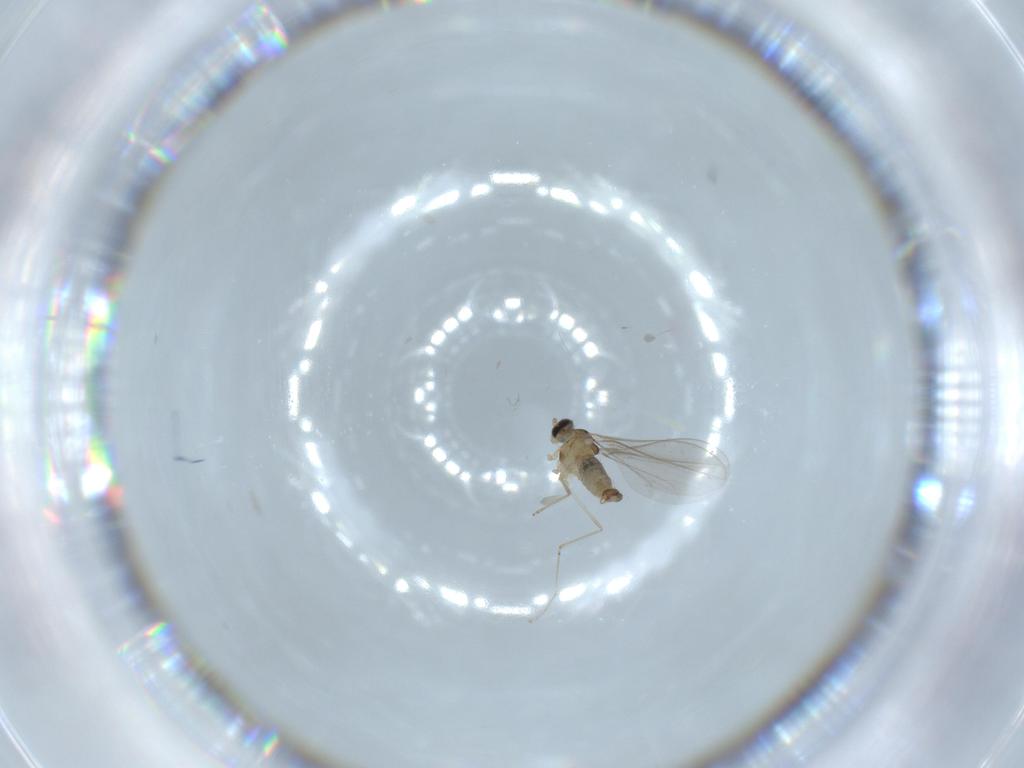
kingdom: Animalia
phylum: Arthropoda
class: Insecta
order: Diptera
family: Cecidomyiidae
